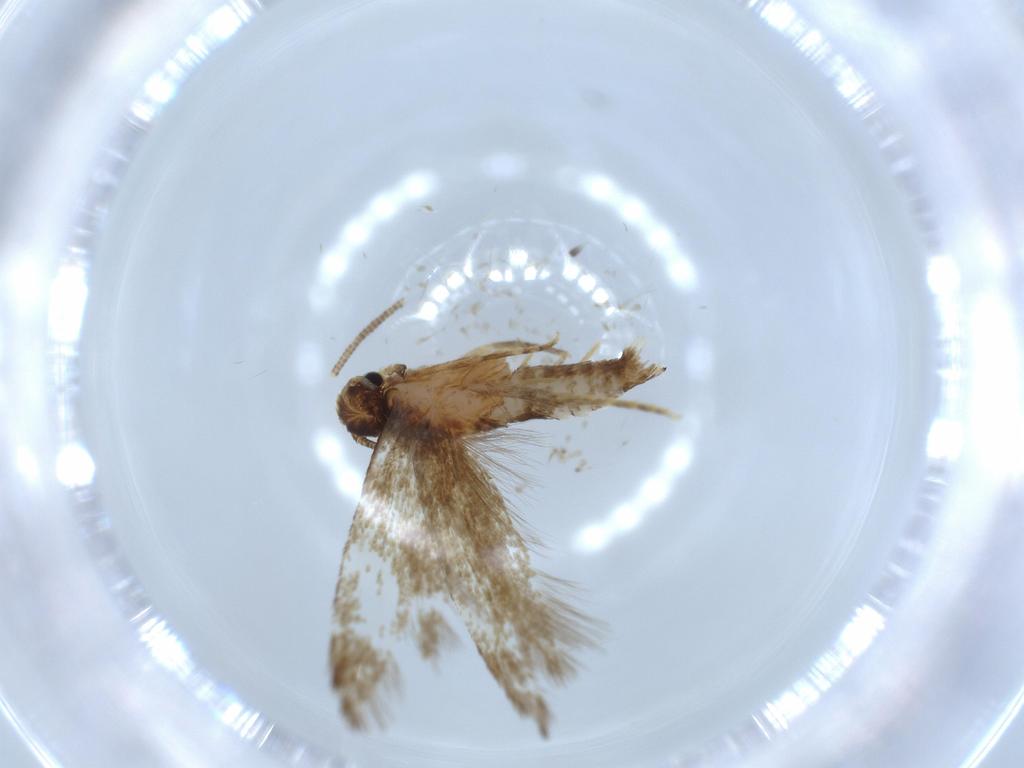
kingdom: Animalia
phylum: Arthropoda
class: Insecta
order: Lepidoptera
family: Tineidae
